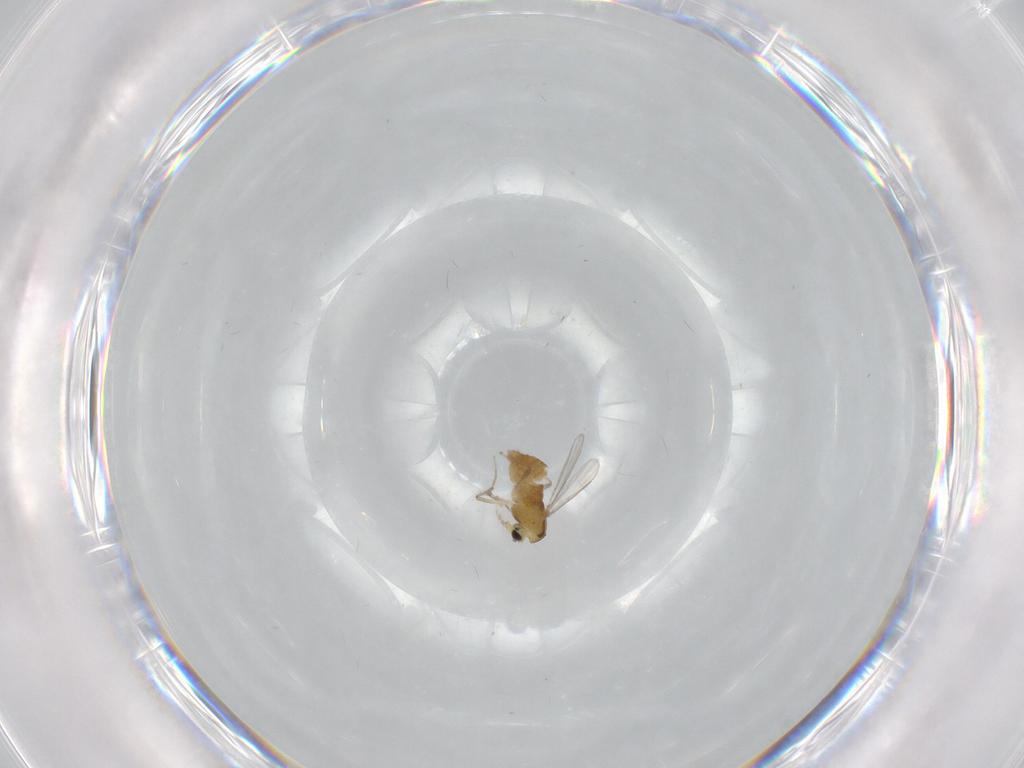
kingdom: Animalia
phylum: Arthropoda
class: Insecta
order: Diptera
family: Chironomidae
